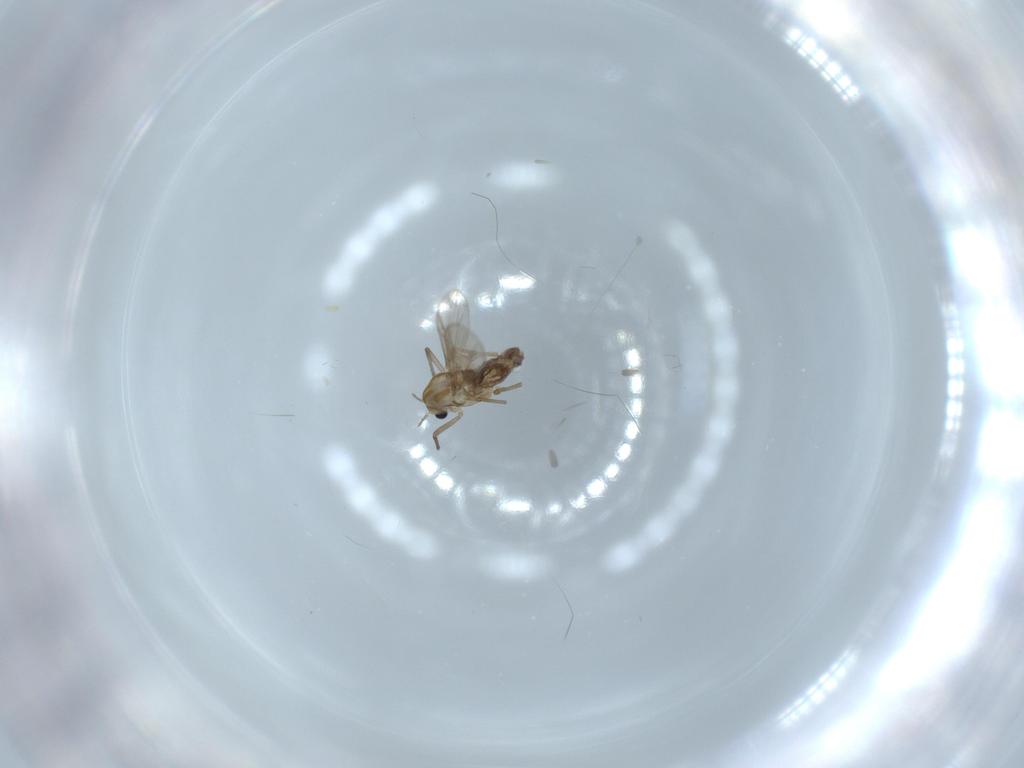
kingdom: Animalia
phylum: Arthropoda
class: Insecta
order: Diptera
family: Chironomidae
